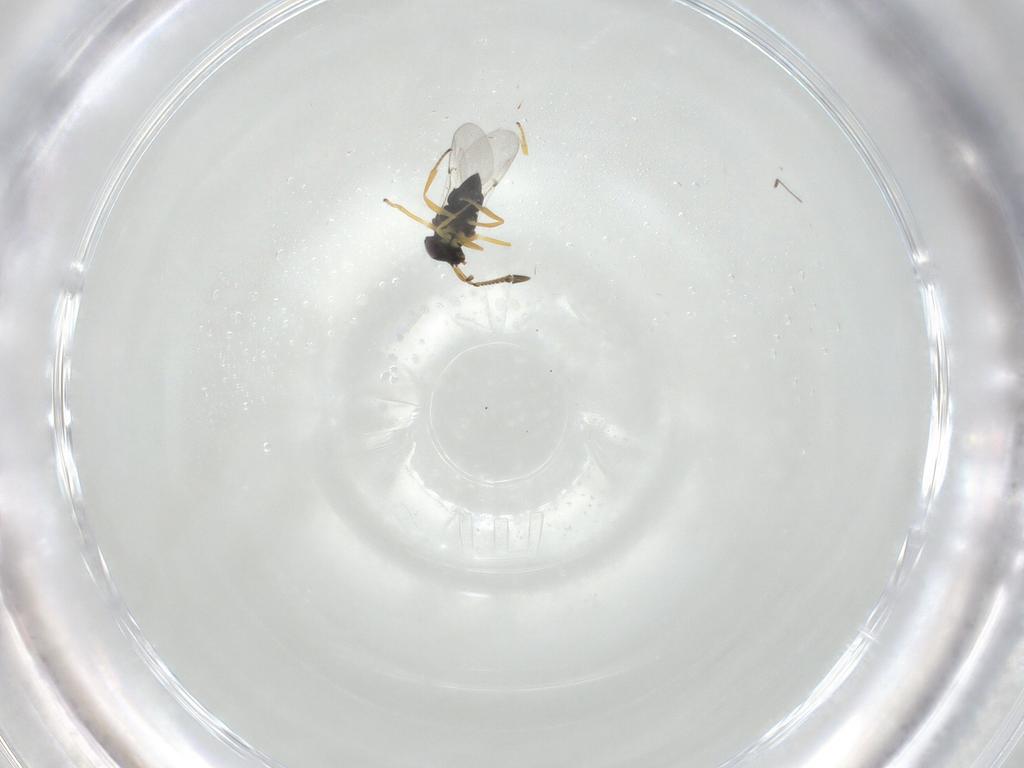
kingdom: Animalia
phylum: Arthropoda
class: Insecta
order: Hymenoptera
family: Encyrtidae
